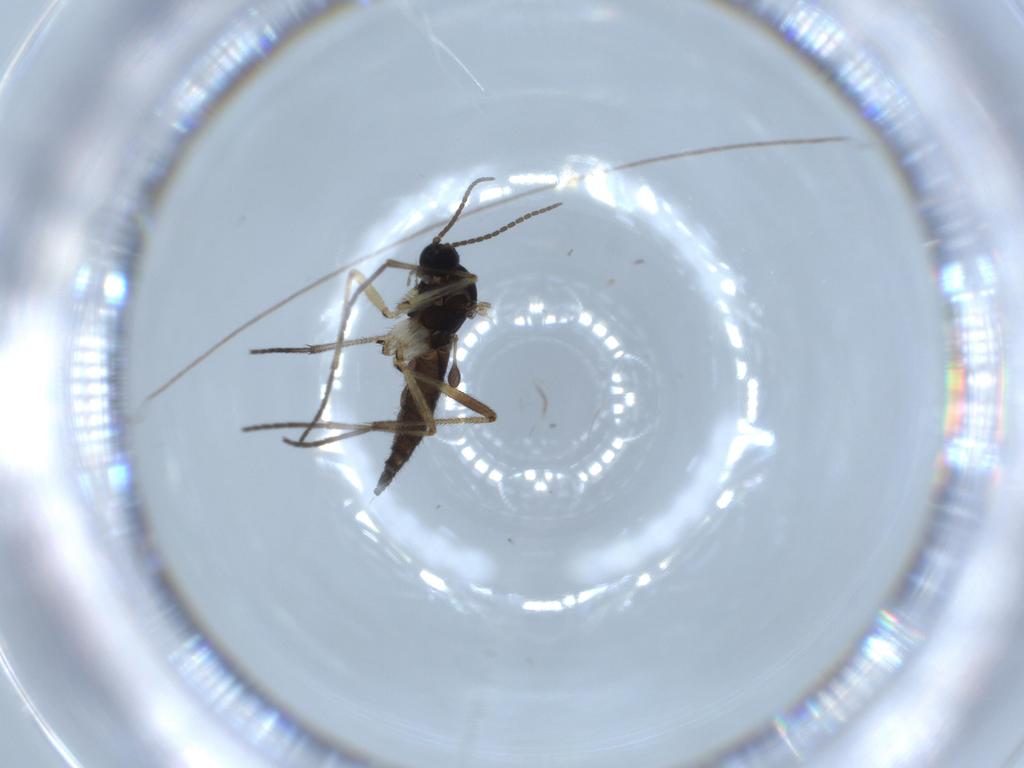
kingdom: Animalia
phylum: Arthropoda
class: Insecta
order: Diptera
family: Sciaridae
